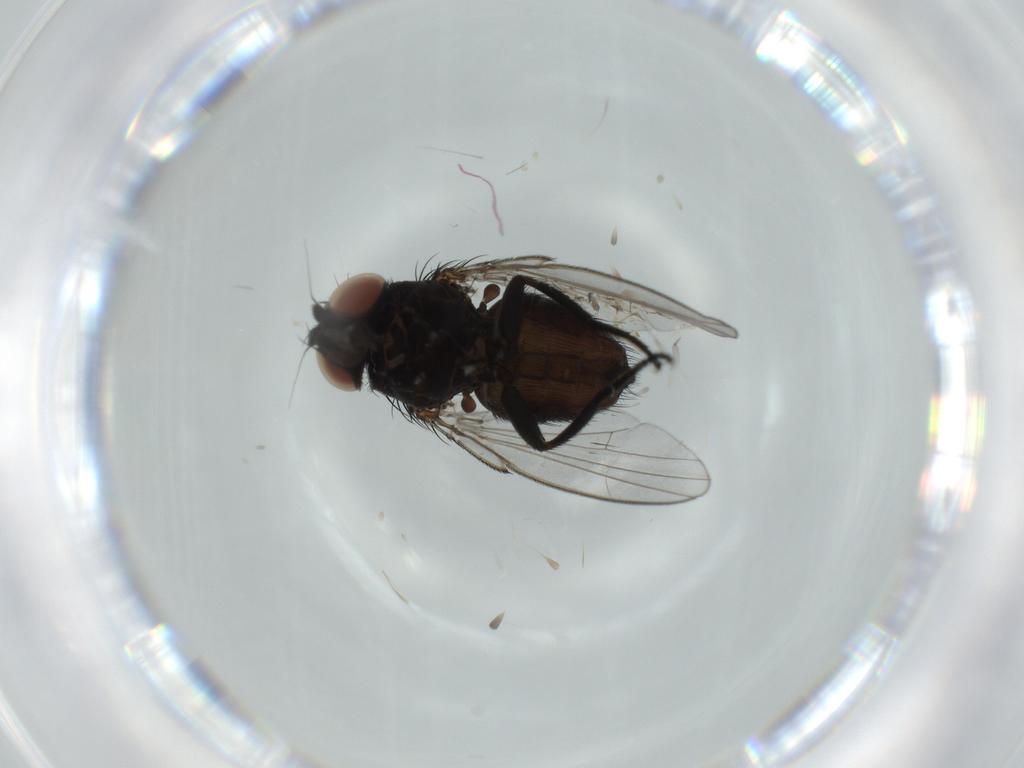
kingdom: Animalia
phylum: Arthropoda
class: Insecta
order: Diptera
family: Milichiidae
